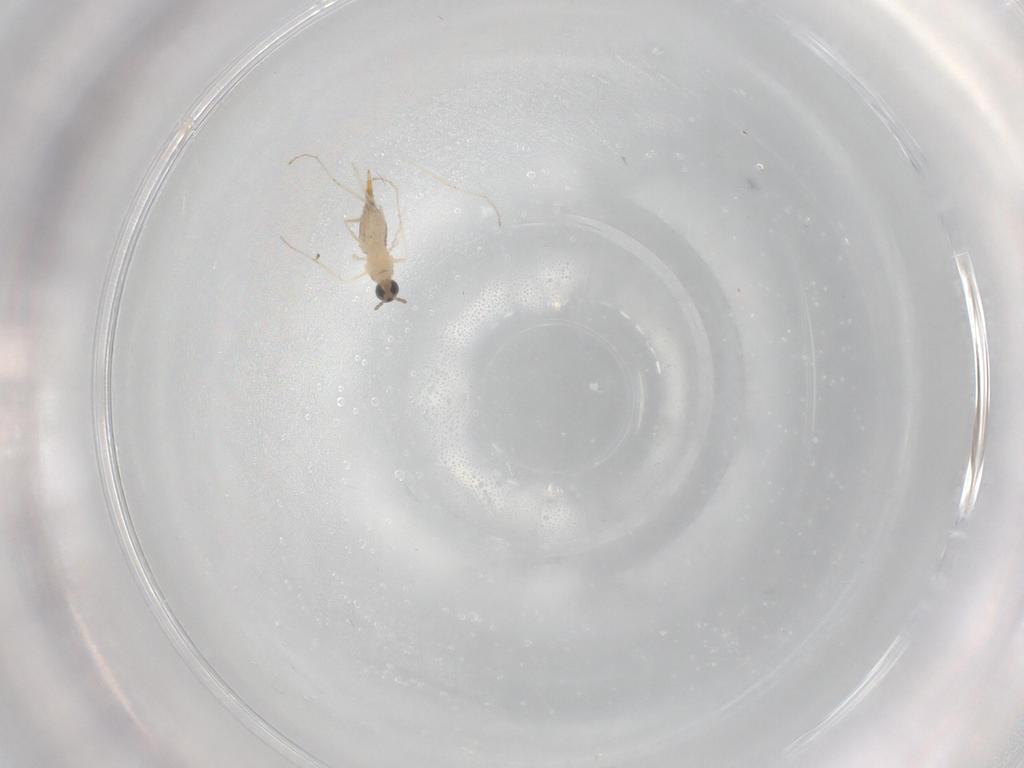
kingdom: Animalia
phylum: Arthropoda
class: Insecta
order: Diptera
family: Cecidomyiidae
